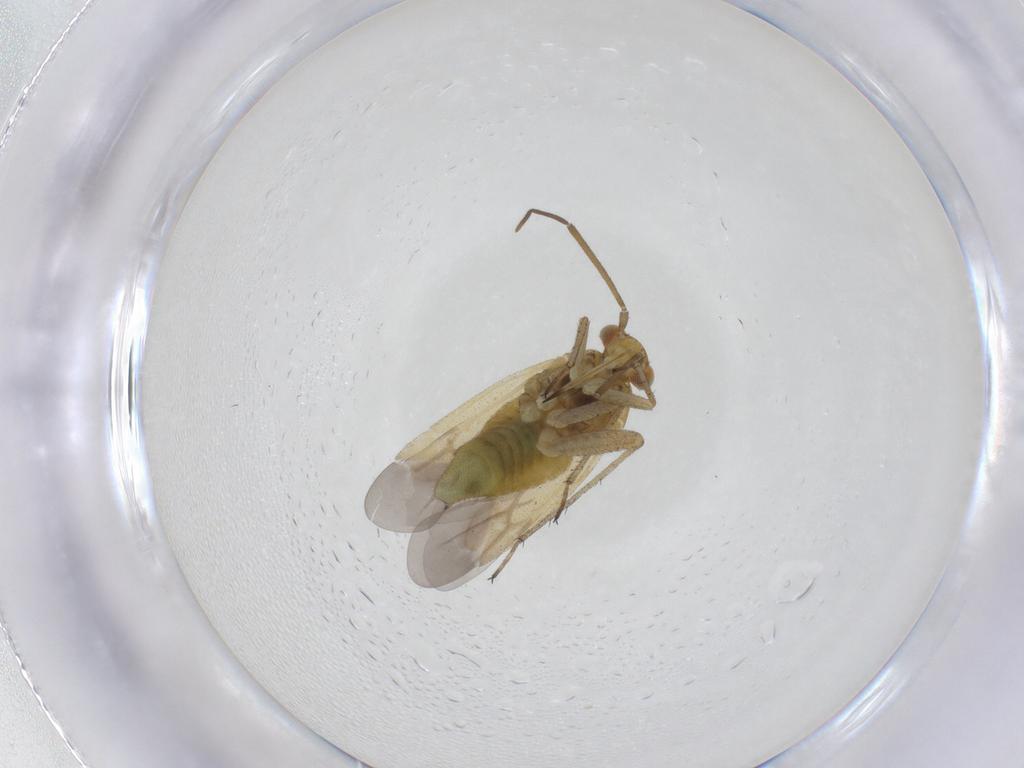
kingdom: Animalia
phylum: Arthropoda
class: Insecta
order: Hemiptera
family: Miridae
